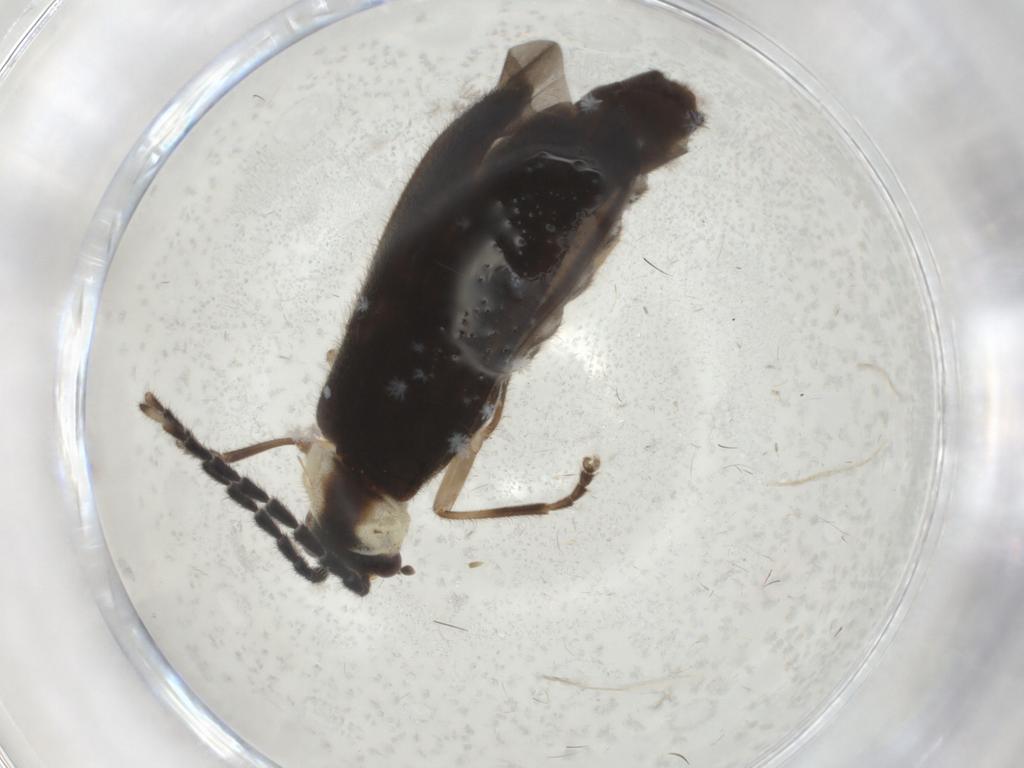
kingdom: Animalia
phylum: Arthropoda
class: Insecta
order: Coleoptera
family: Cantharidae
